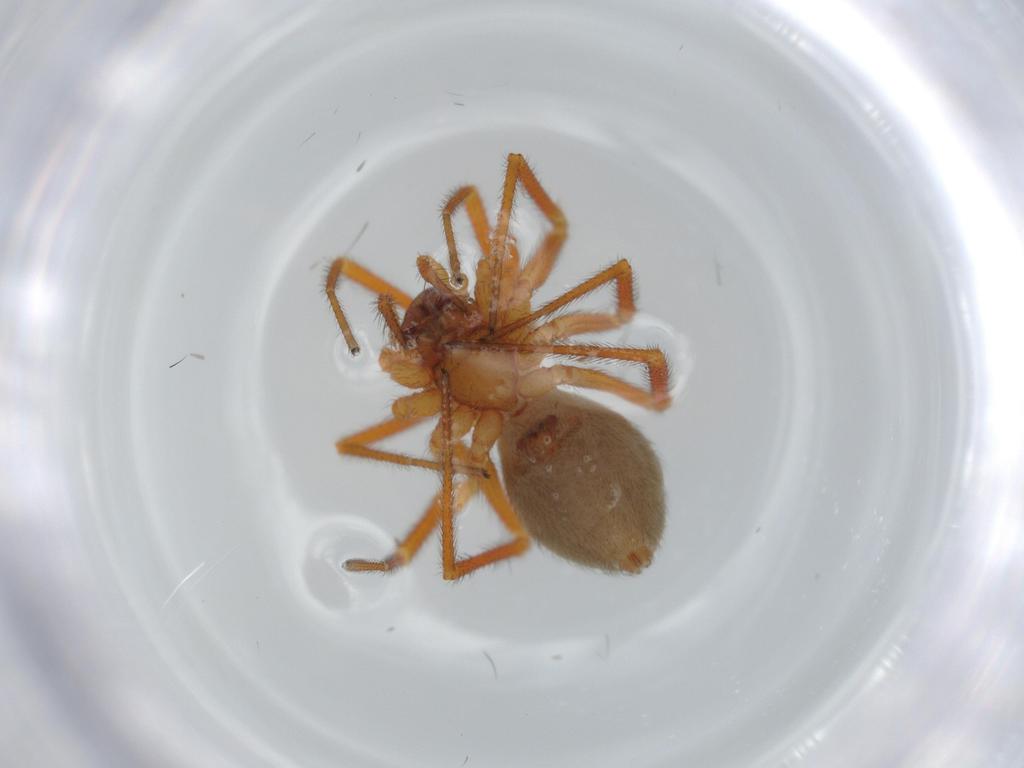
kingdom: Animalia
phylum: Arthropoda
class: Arachnida
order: Araneae
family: Linyphiidae
